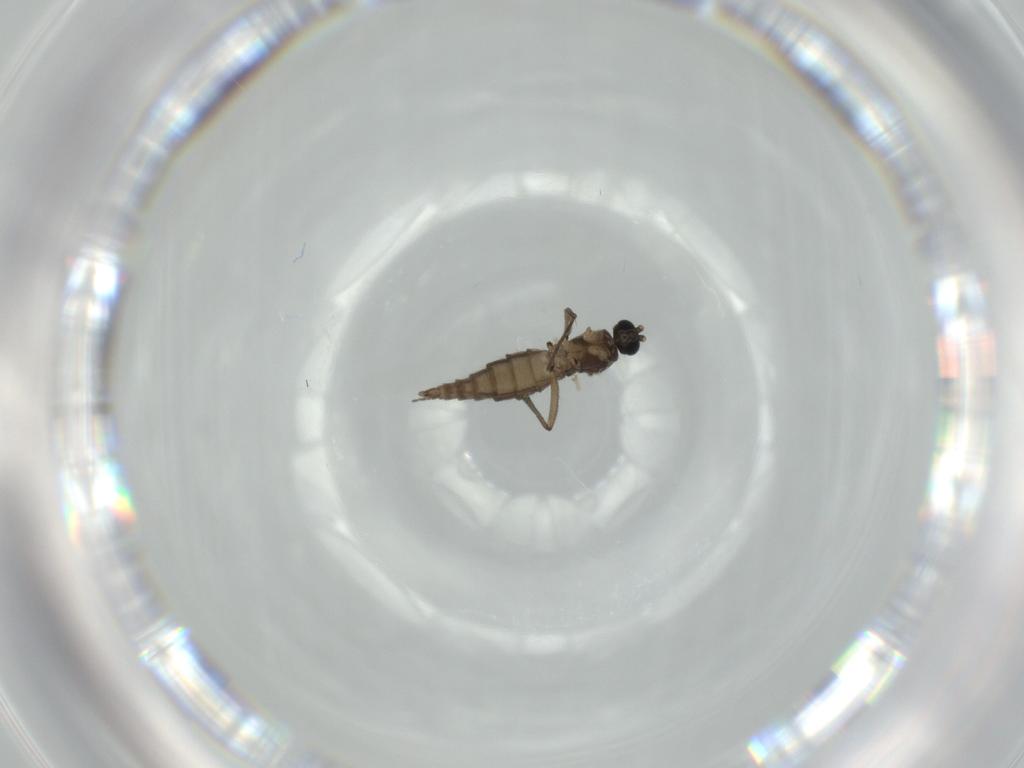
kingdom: Animalia
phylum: Arthropoda
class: Insecta
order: Diptera
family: Sciaridae
